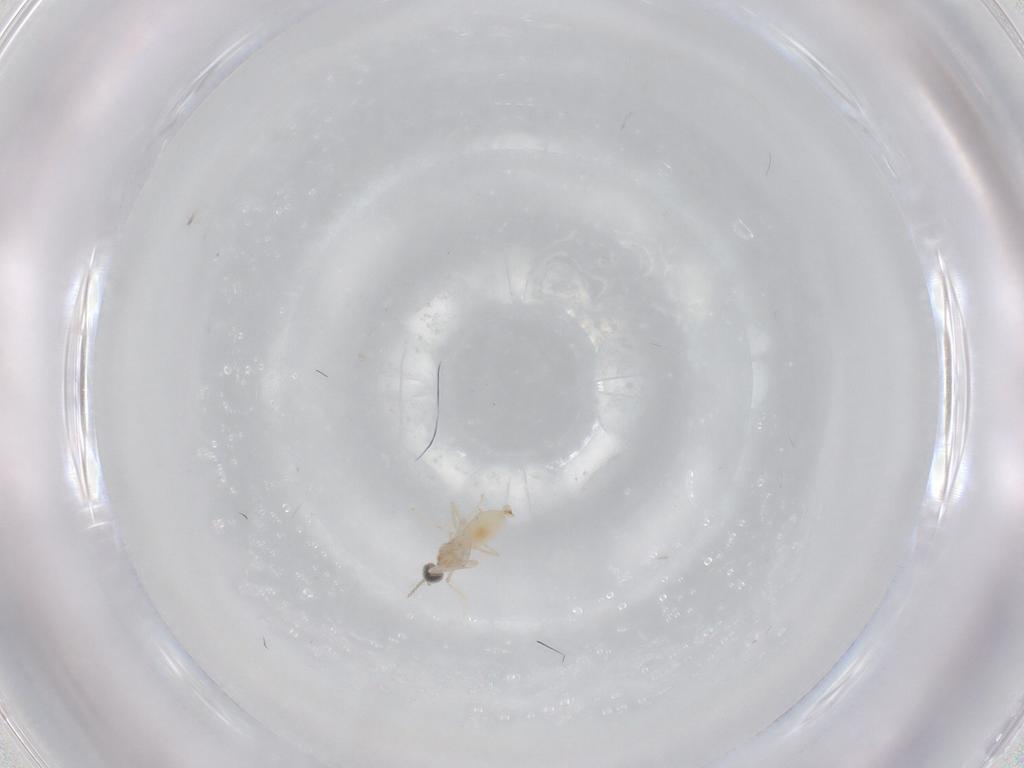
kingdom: Animalia
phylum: Arthropoda
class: Insecta
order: Diptera
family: Cecidomyiidae
